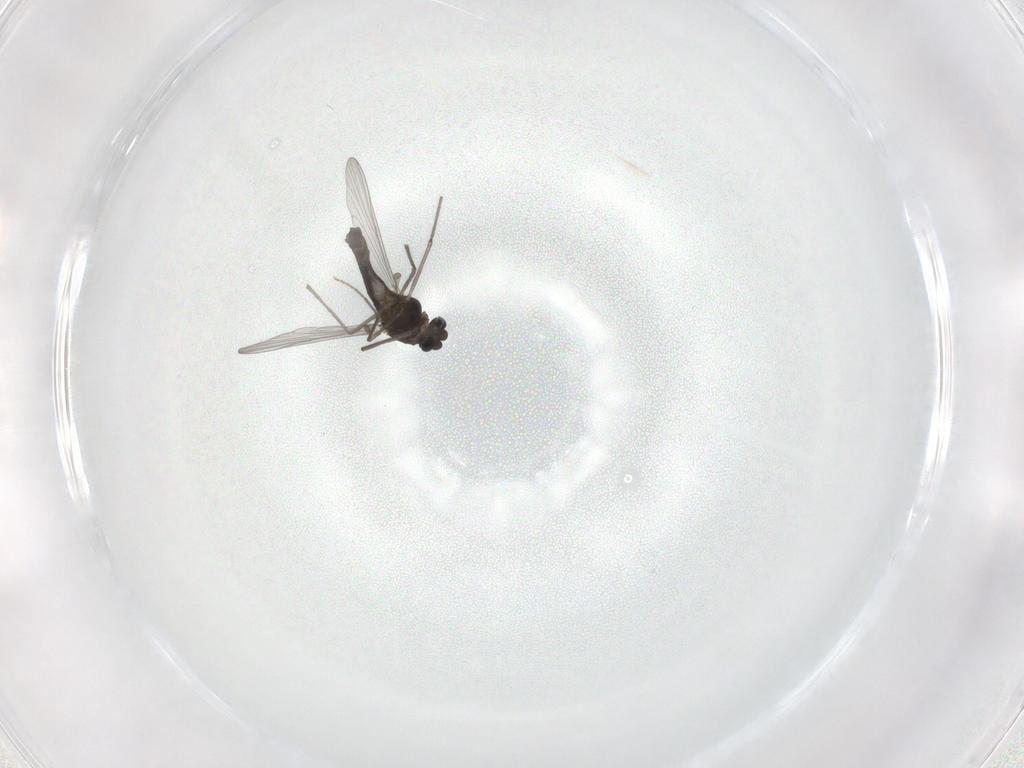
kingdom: Animalia
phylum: Arthropoda
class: Insecta
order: Diptera
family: Chironomidae
